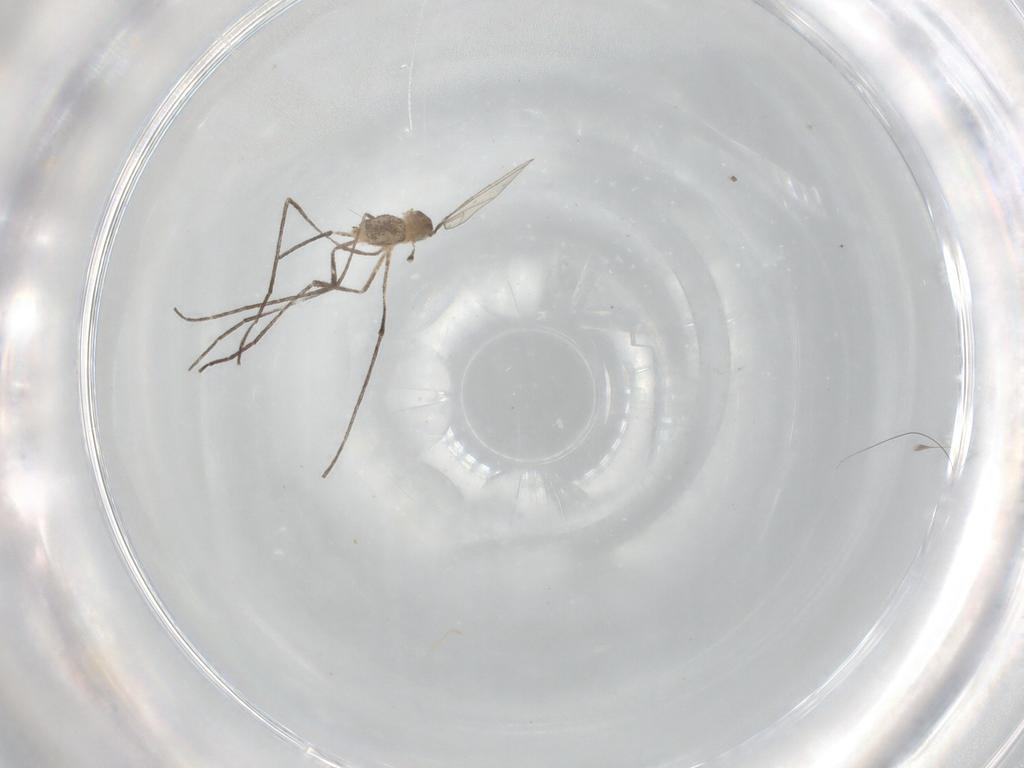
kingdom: Animalia
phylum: Arthropoda
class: Insecta
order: Diptera
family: Cecidomyiidae
